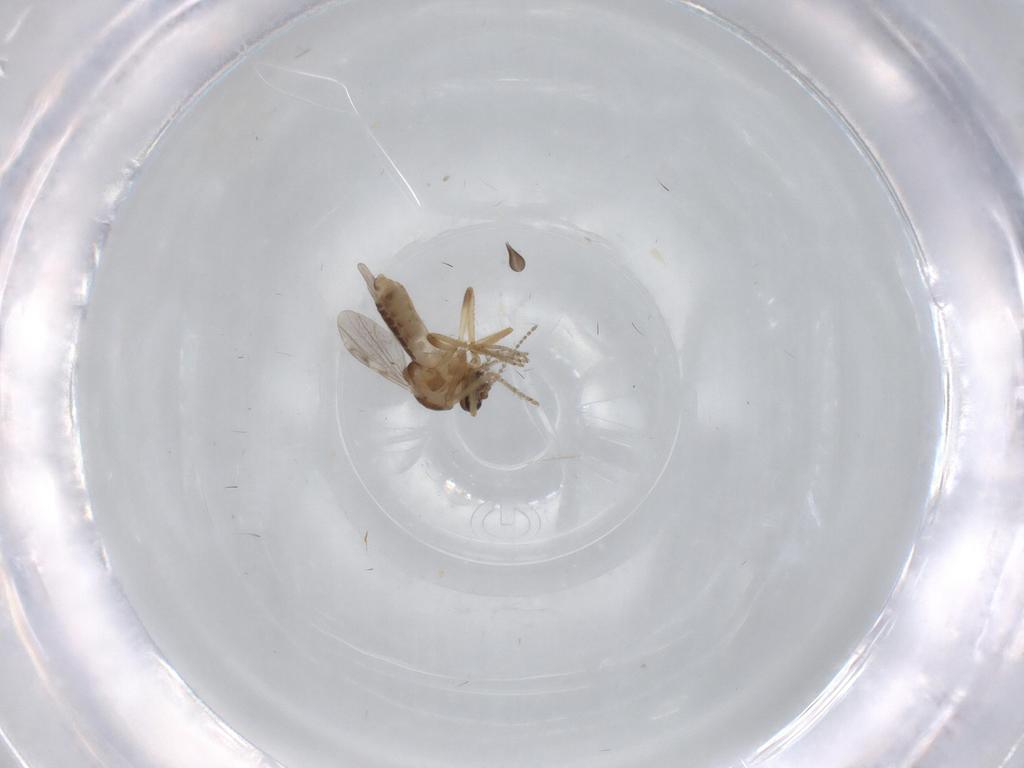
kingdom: Animalia
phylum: Arthropoda
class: Insecta
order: Diptera
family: Ceratopogonidae
